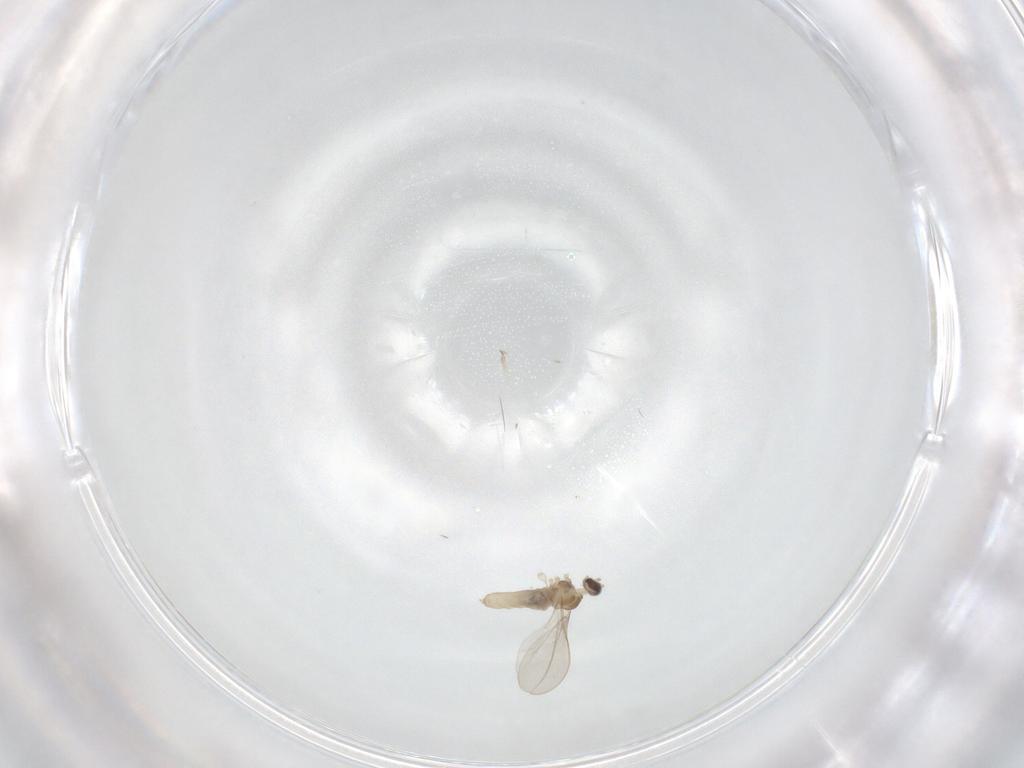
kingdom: Animalia
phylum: Arthropoda
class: Insecta
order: Diptera
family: Cecidomyiidae
